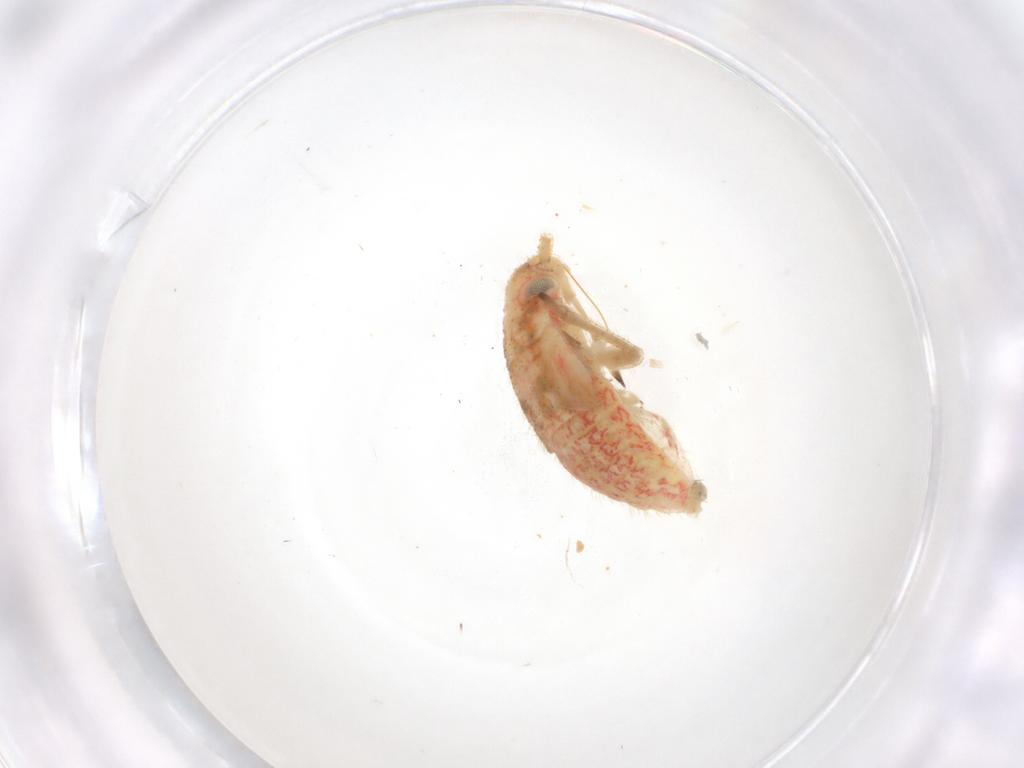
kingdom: Animalia
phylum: Arthropoda
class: Insecta
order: Hemiptera
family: Miridae
